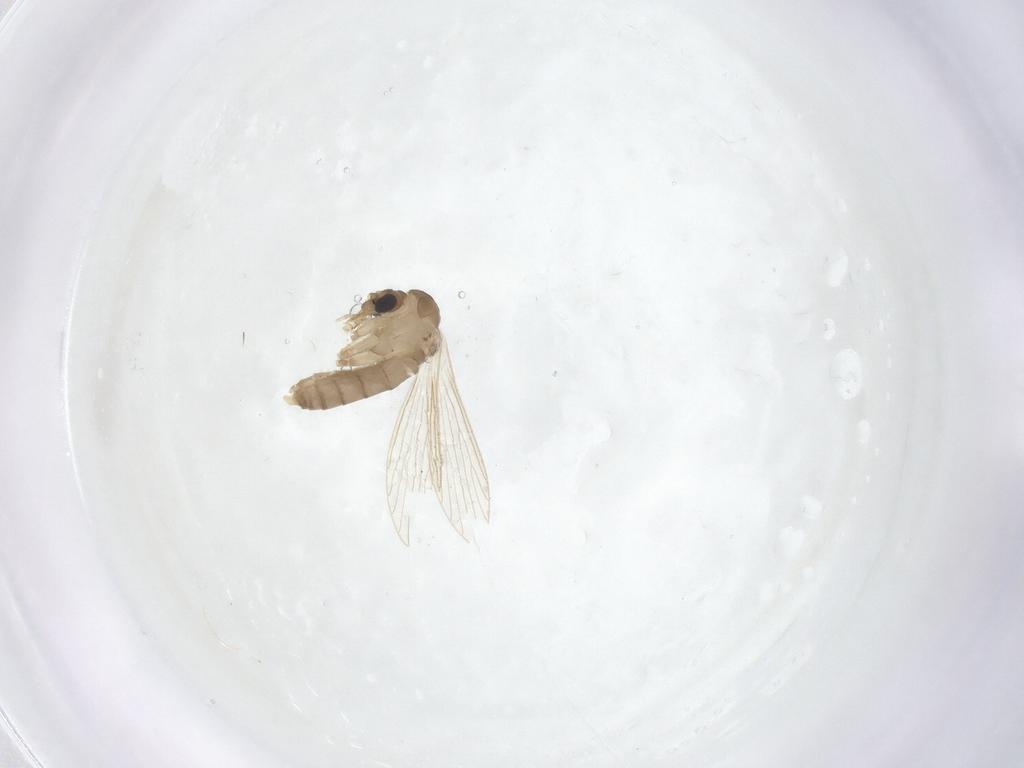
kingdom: Animalia
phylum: Arthropoda
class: Insecta
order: Diptera
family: Psychodidae
